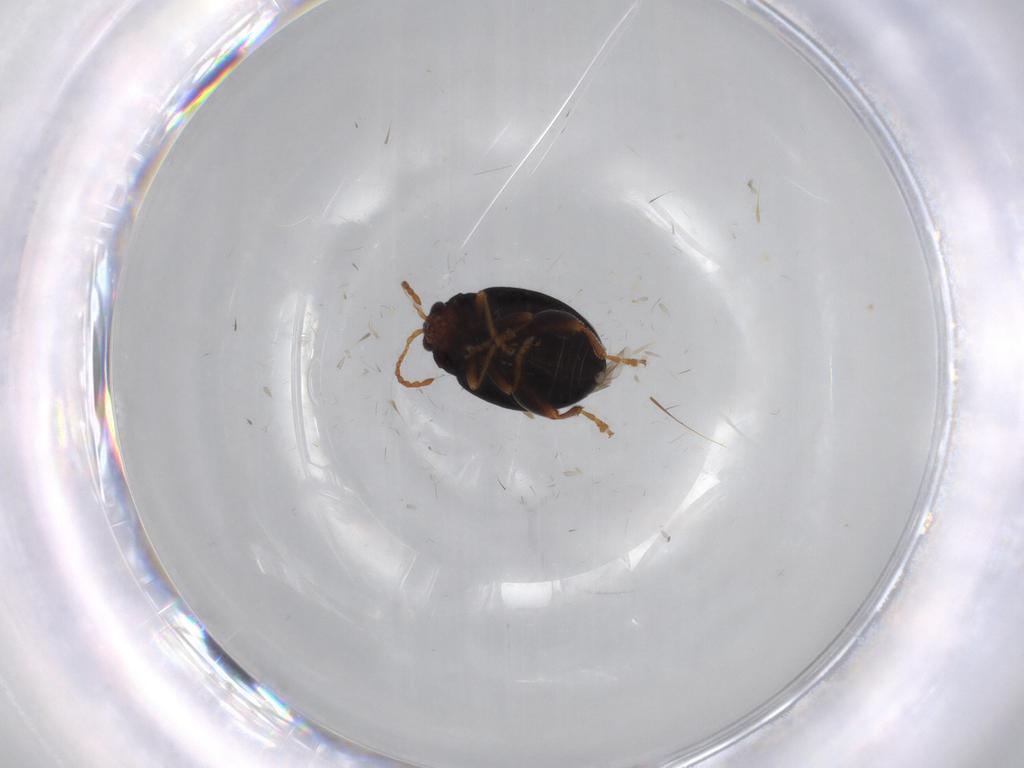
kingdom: Animalia
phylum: Arthropoda
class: Insecta
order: Coleoptera
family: Chrysomelidae
